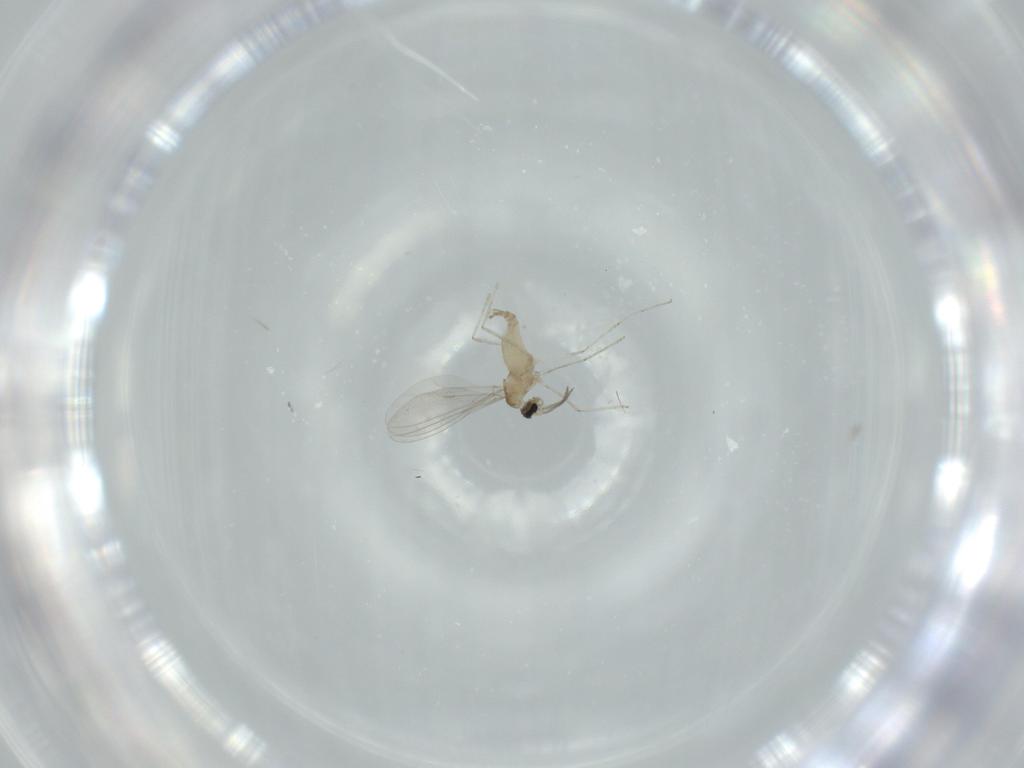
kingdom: Animalia
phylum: Arthropoda
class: Insecta
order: Diptera
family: Cecidomyiidae
